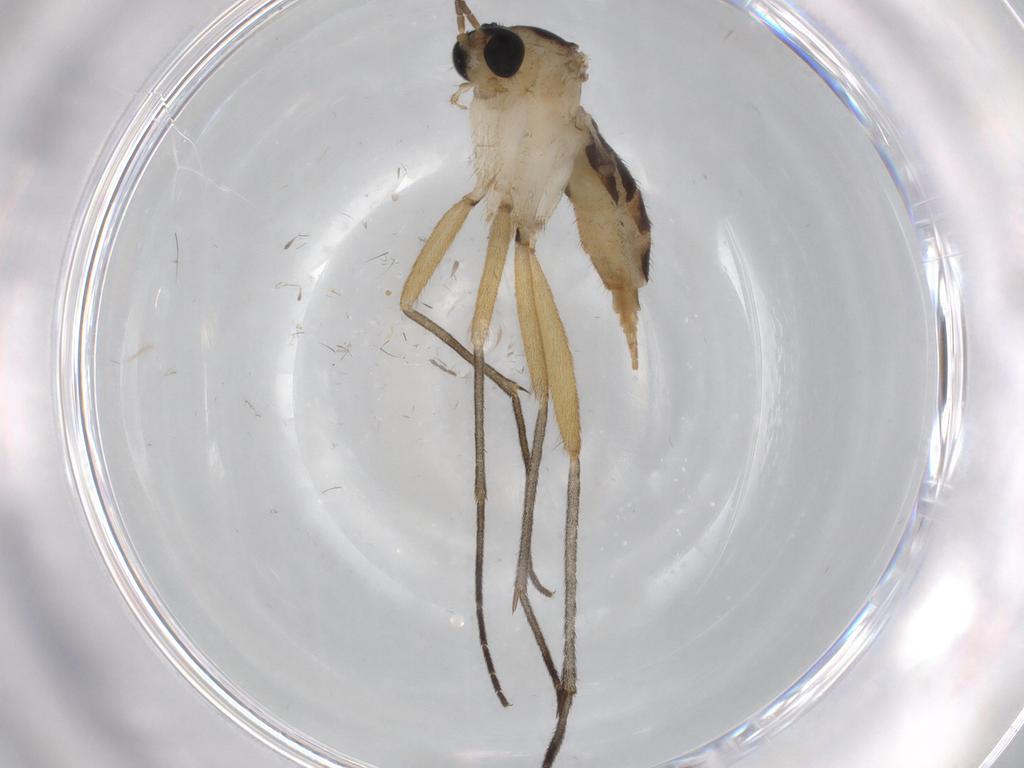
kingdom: Animalia
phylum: Arthropoda
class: Insecta
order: Diptera
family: Sciaridae
